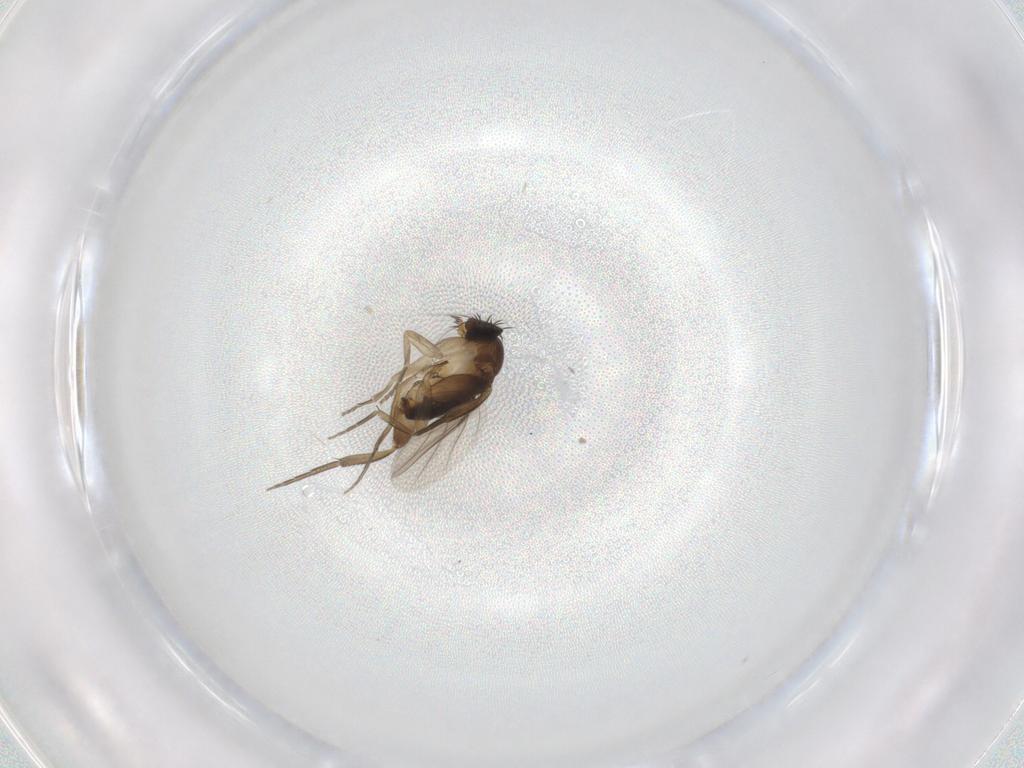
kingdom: Animalia
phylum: Arthropoda
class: Insecta
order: Diptera
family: Phoridae
